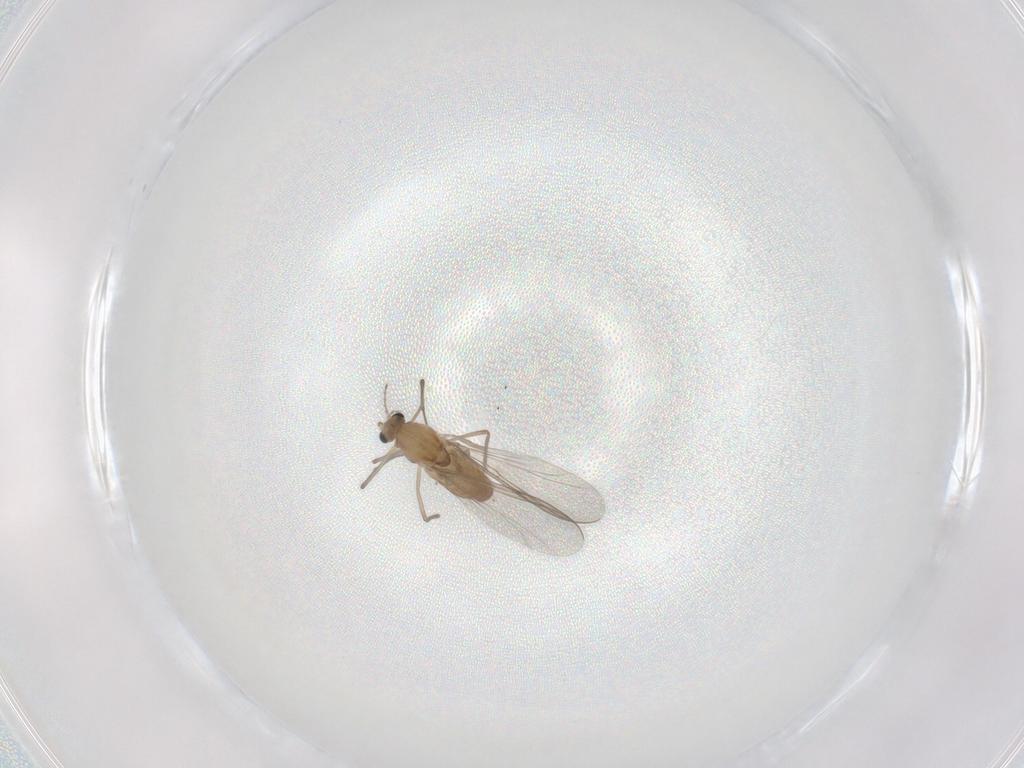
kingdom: Animalia
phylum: Arthropoda
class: Insecta
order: Diptera
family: Chironomidae
